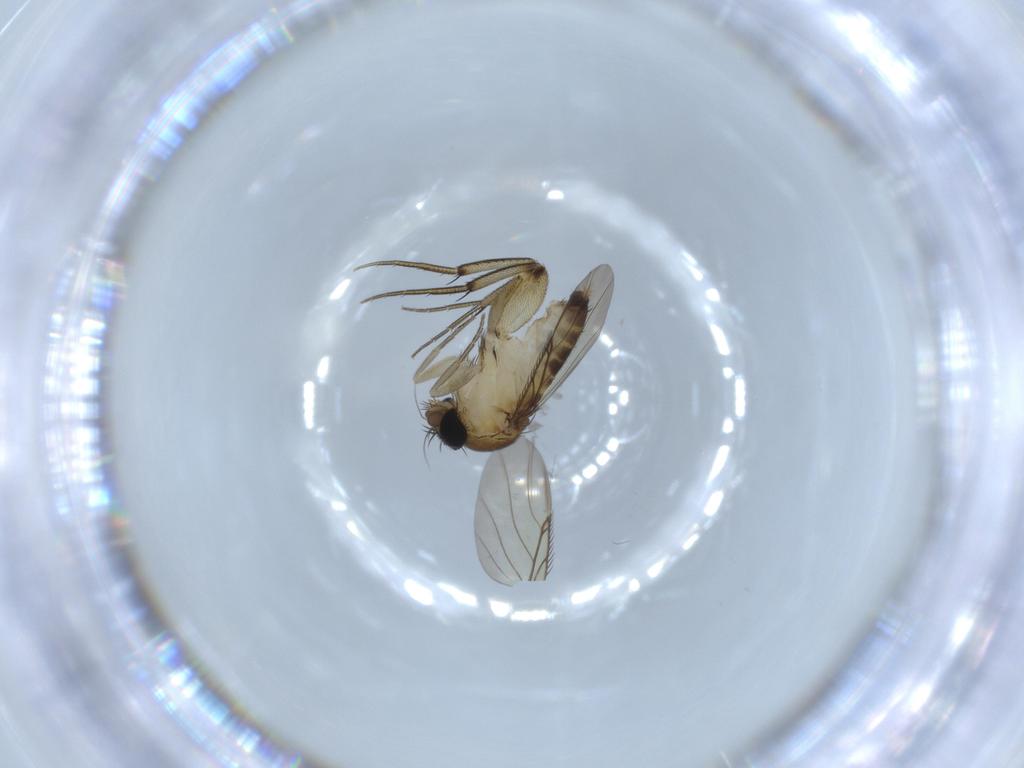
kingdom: Animalia
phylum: Arthropoda
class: Insecta
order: Diptera
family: Phoridae
